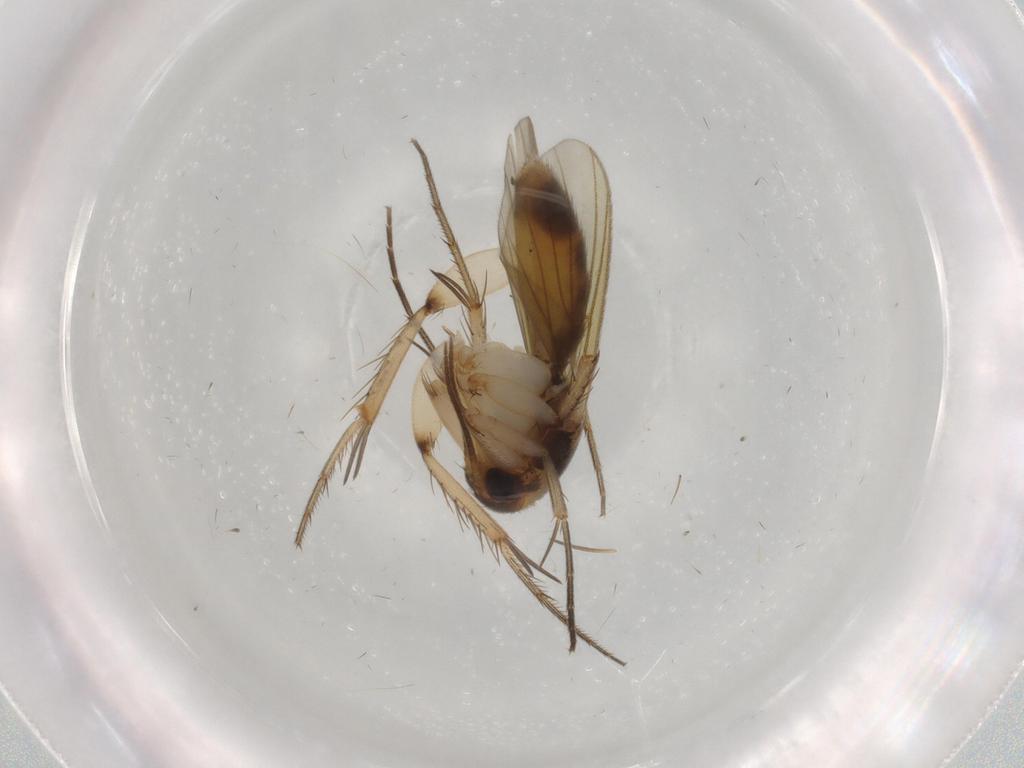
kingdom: Animalia
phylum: Arthropoda
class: Insecta
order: Diptera
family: Mycetophilidae
